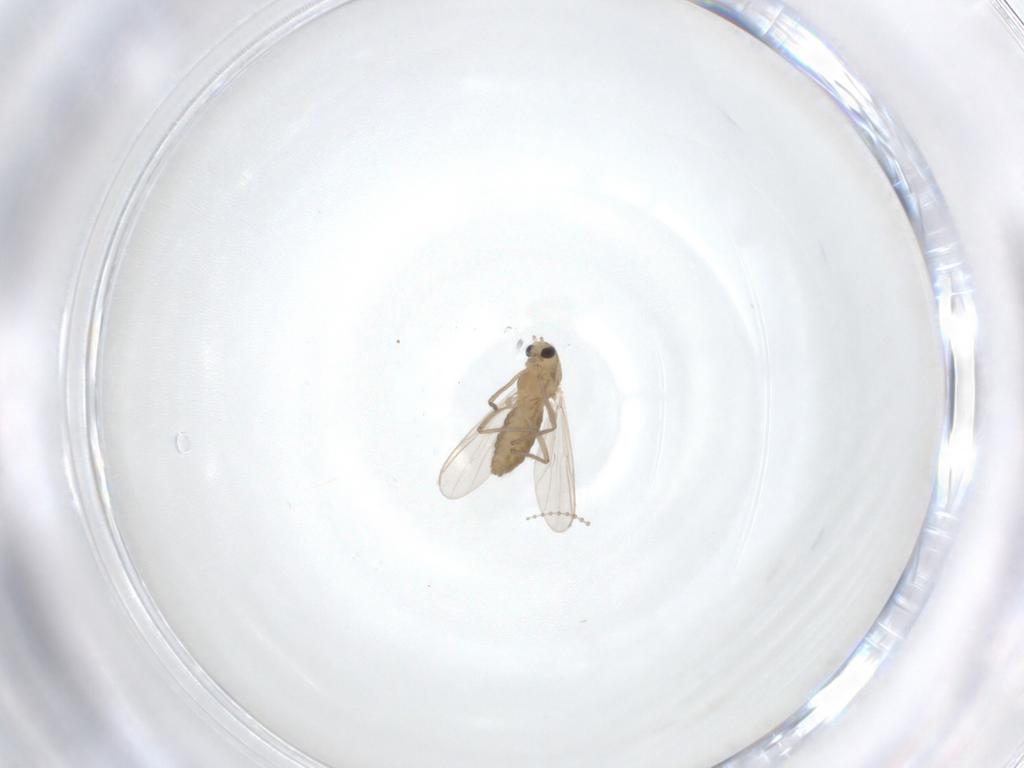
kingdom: Animalia
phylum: Arthropoda
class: Insecta
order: Diptera
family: Chironomidae
